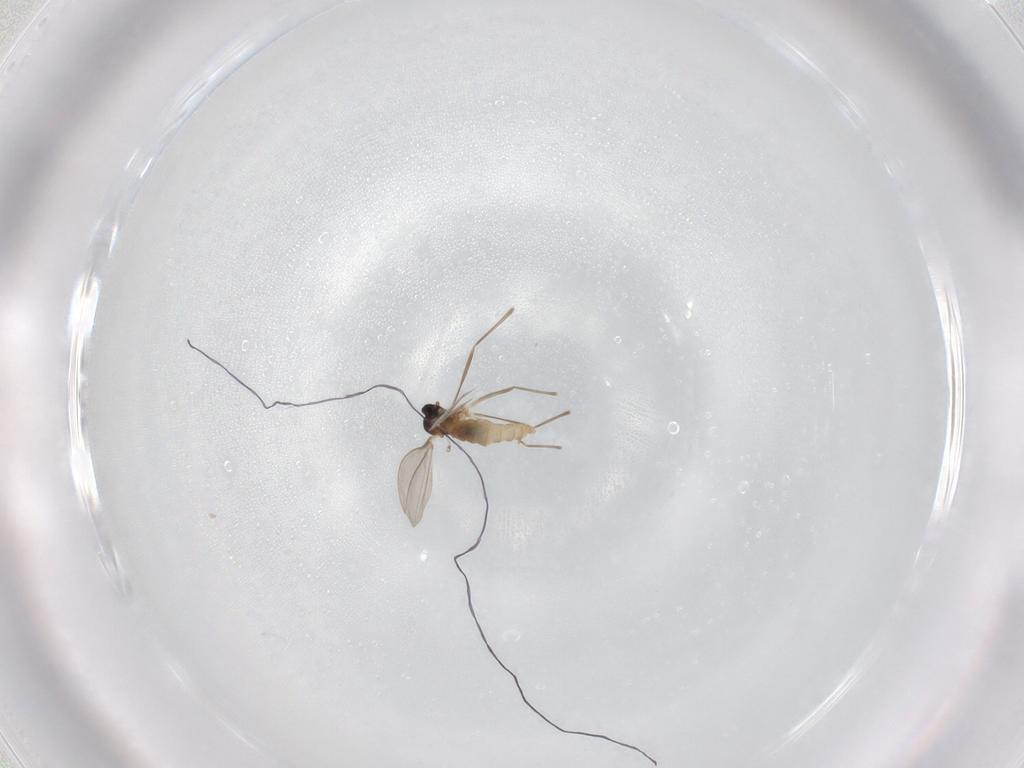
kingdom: Animalia
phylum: Arthropoda
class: Insecta
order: Diptera
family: Cecidomyiidae
